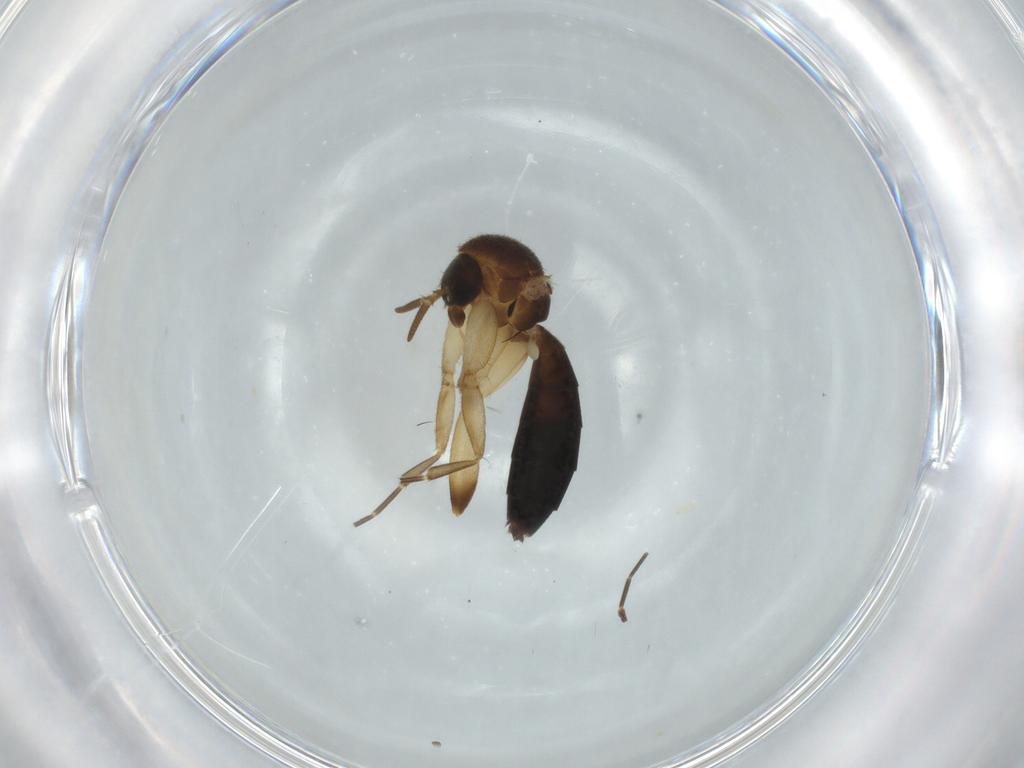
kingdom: Animalia
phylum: Arthropoda
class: Insecta
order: Diptera
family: Mycetophilidae
